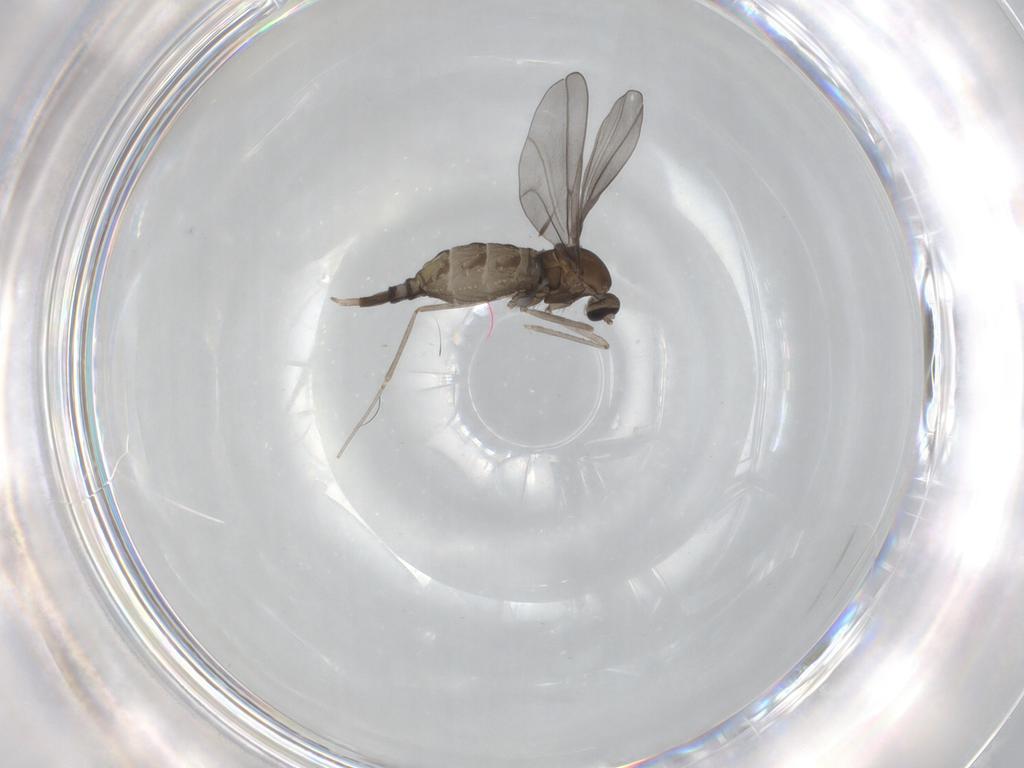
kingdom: Animalia
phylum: Arthropoda
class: Insecta
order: Diptera
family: Cecidomyiidae
